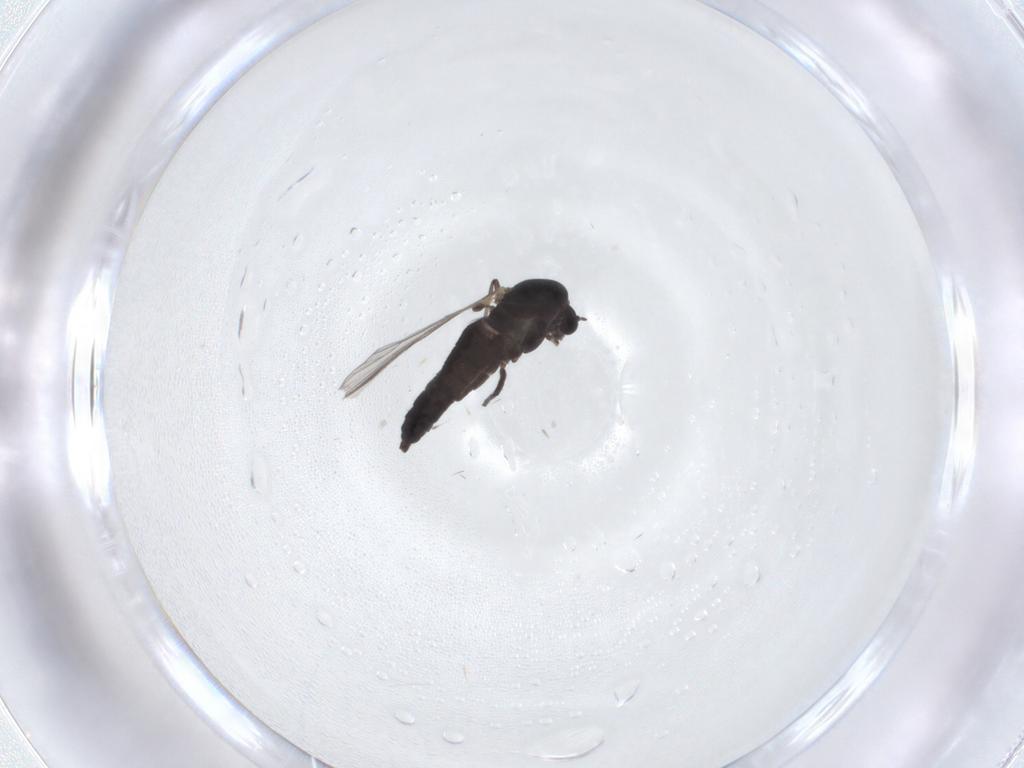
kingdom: Animalia
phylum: Arthropoda
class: Insecta
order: Diptera
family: Chironomidae
